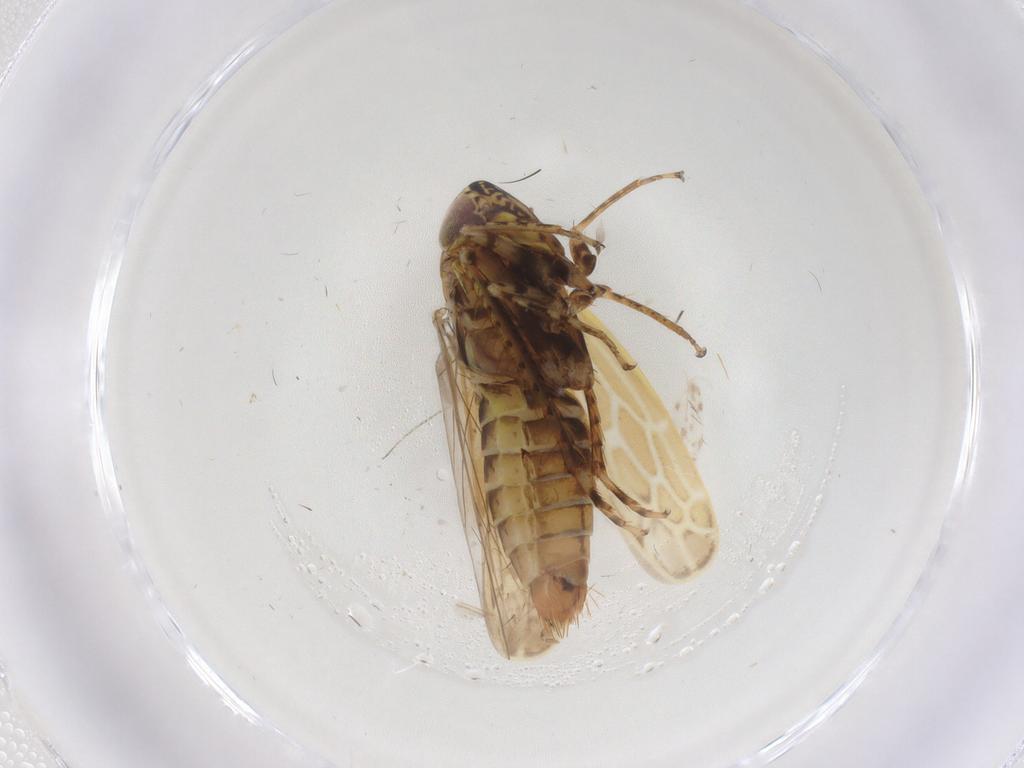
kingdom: Animalia
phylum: Arthropoda
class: Insecta
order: Hemiptera
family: Cicadellidae
